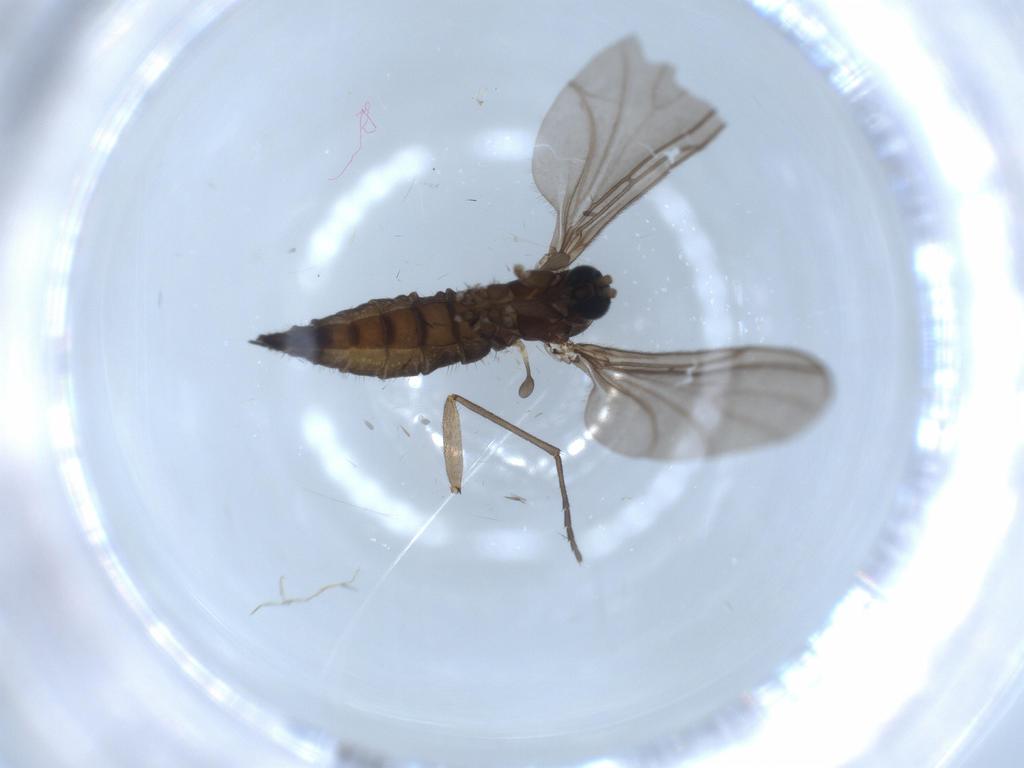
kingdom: Animalia
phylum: Arthropoda
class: Insecta
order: Diptera
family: Sciaridae
